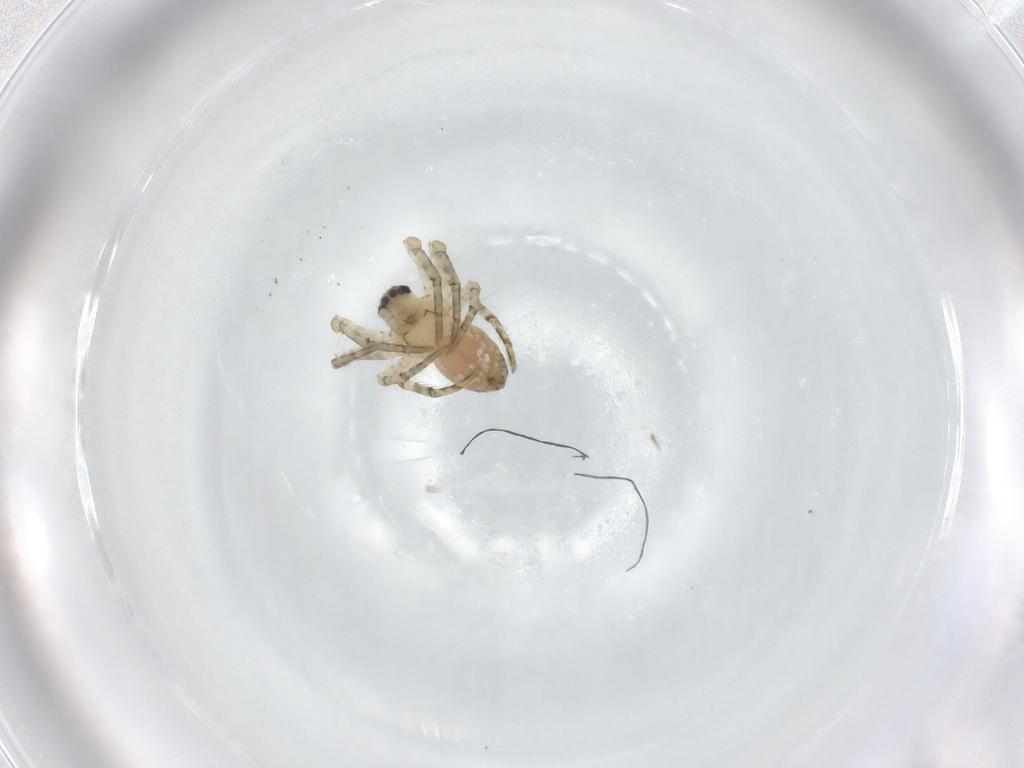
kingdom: Animalia
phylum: Arthropoda
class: Arachnida
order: Araneae
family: Araneidae
